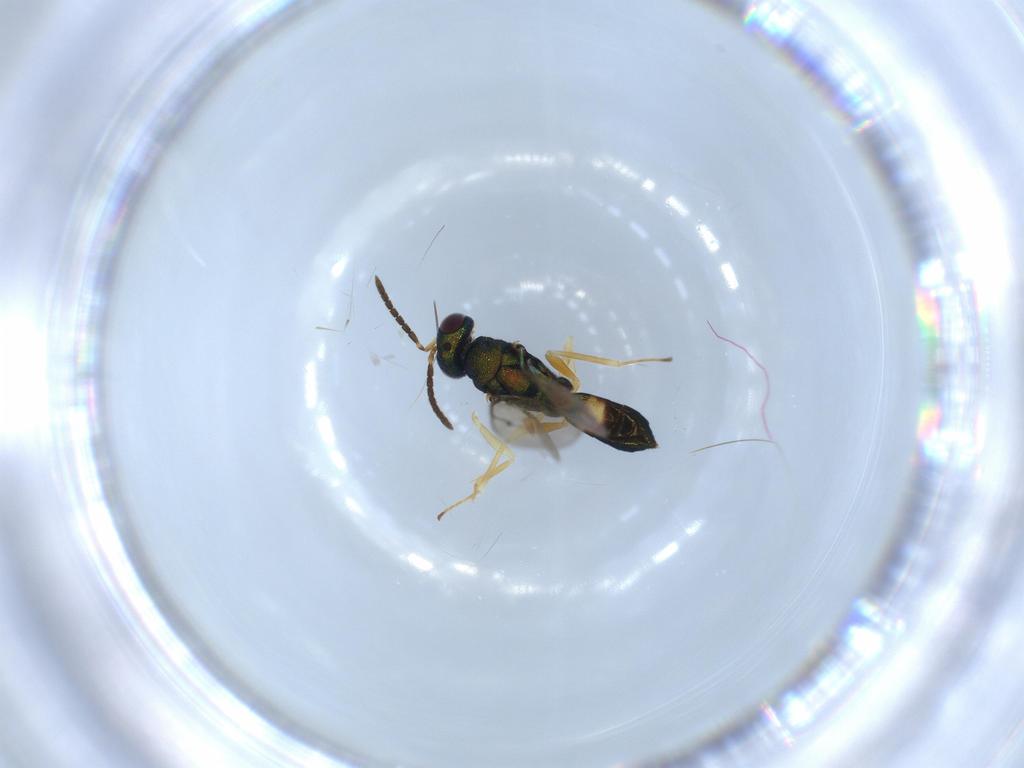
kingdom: Animalia
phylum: Arthropoda
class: Insecta
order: Hymenoptera
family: Pteromalidae
